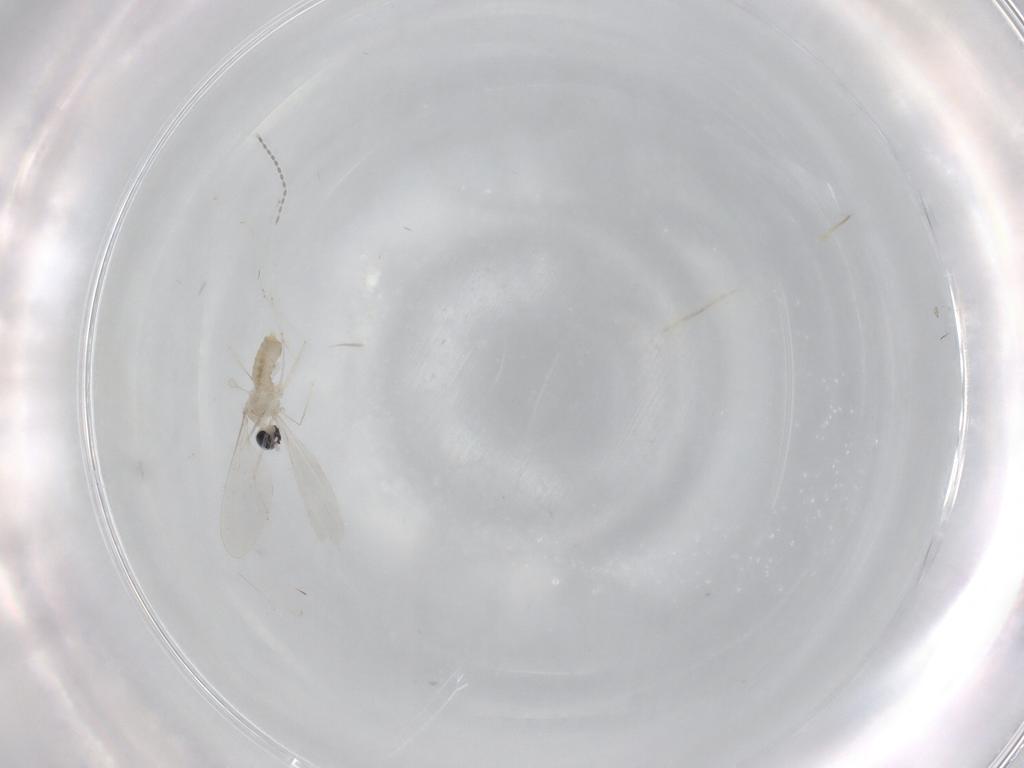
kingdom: Animalia
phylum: Arthropoda
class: Insecta
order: Diptera
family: Cecidomyiidae
